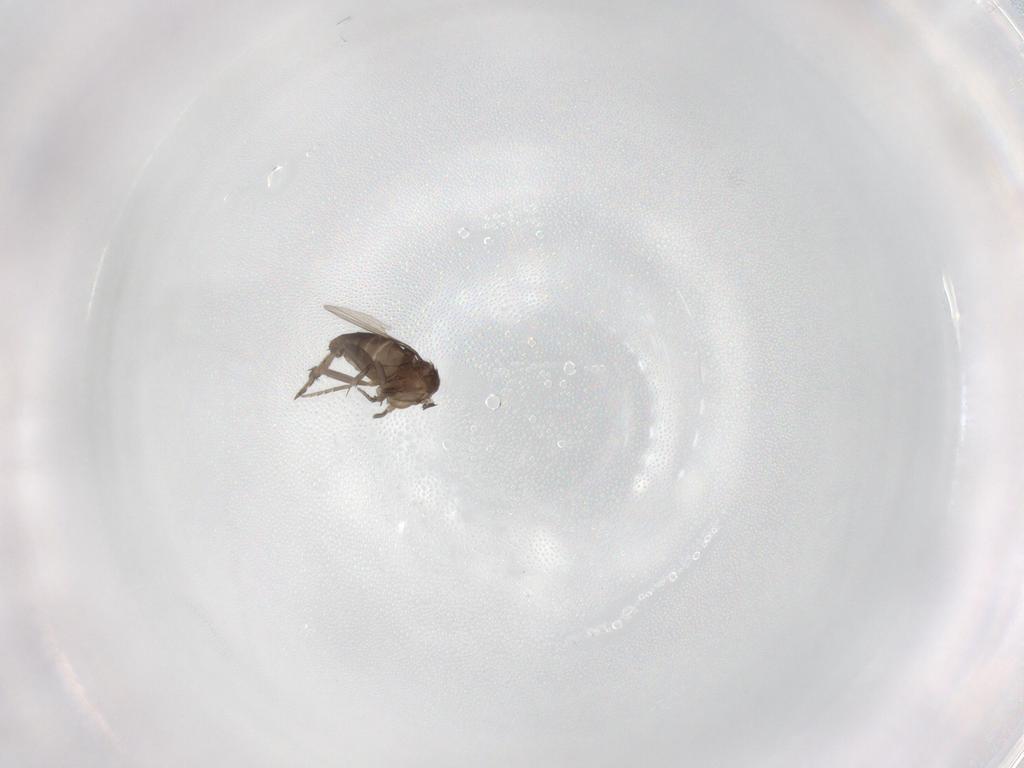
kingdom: Animalia
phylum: Arthropoda
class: Insecta
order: Diptera
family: Phoridae
